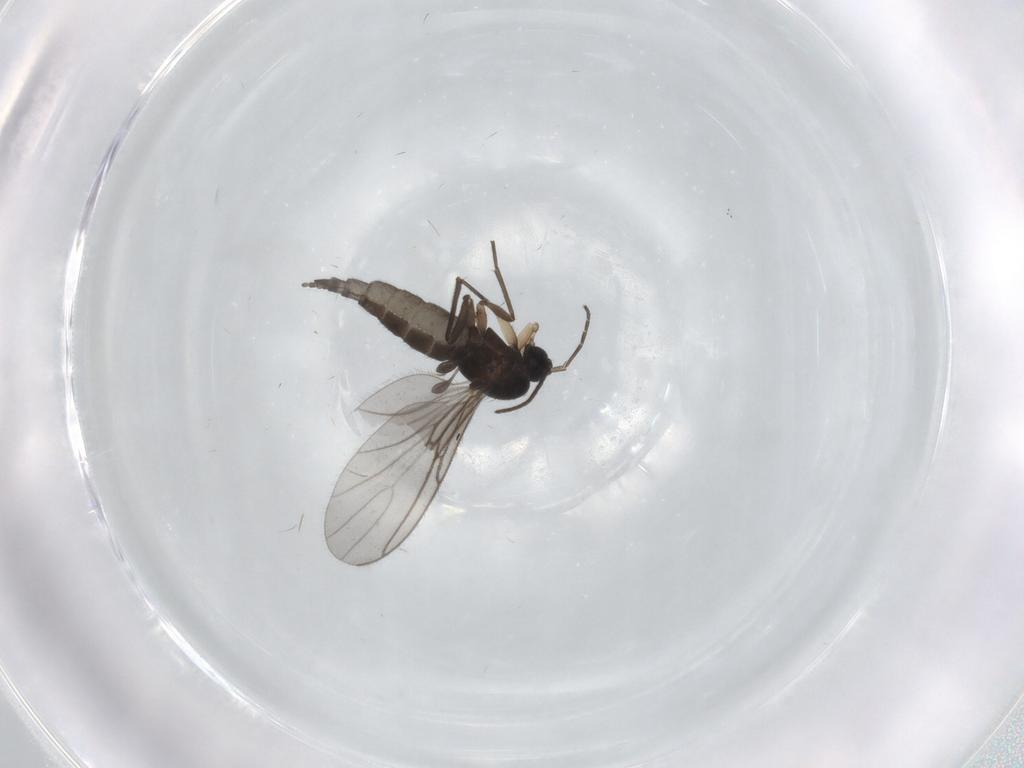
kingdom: Animalia
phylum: Arthropoda
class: Insecta
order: Diptera
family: Sciaridae
